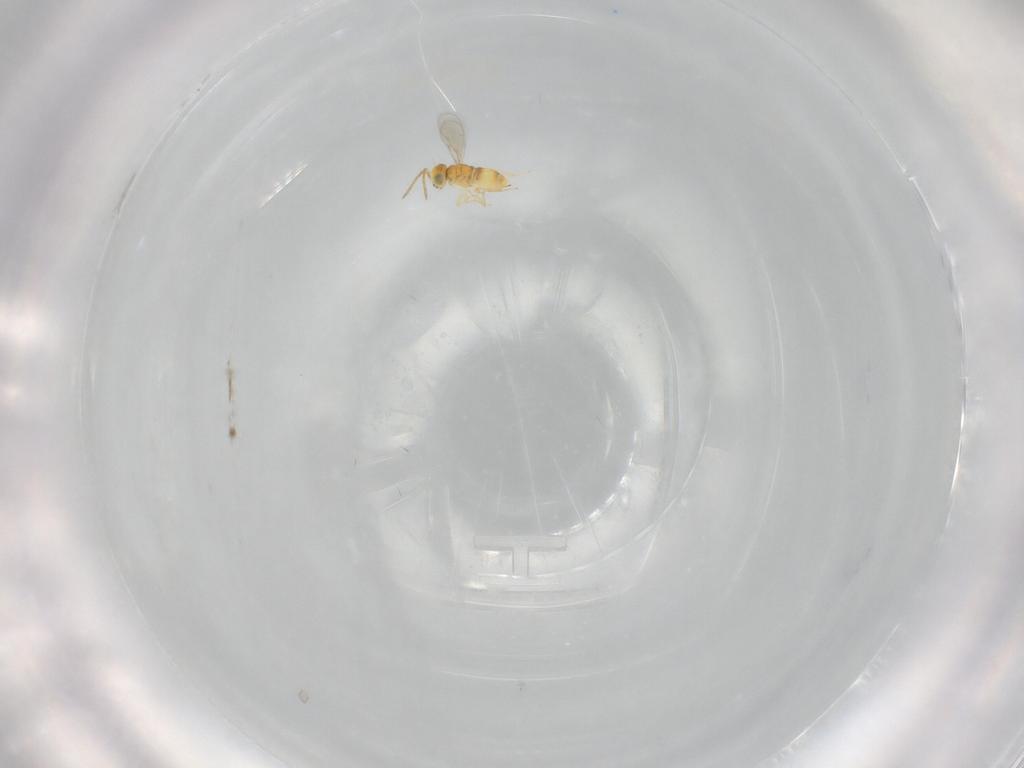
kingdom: Animalia
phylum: Arthropoda
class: Insecta
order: Hymenoptera
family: Aphelinidae
